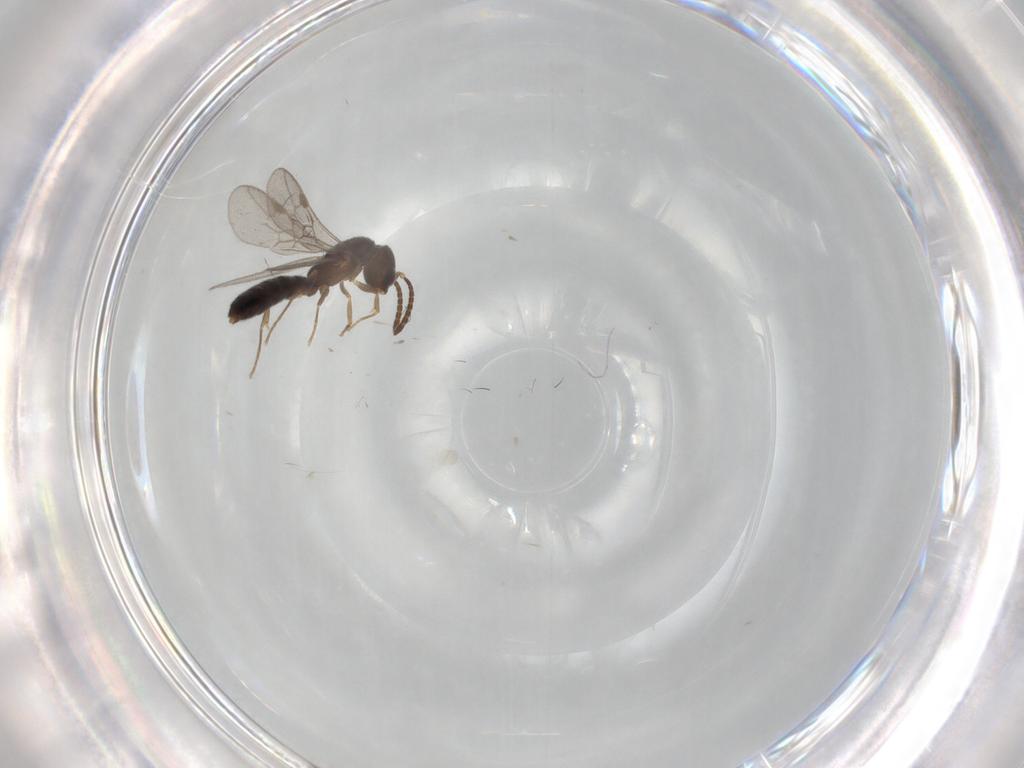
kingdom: Animalia
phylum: Arthropoda
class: Insecta
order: Hymenoptera
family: Formicidae
